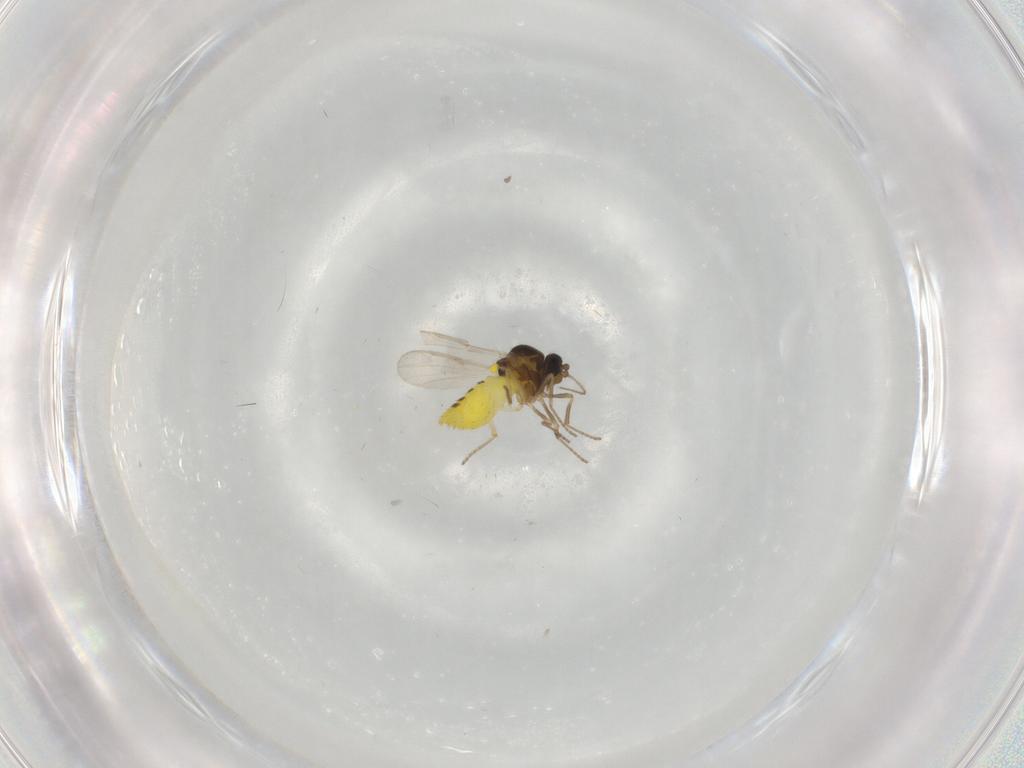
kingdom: Animalia
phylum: Arthropoda
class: Insecta
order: Diptera
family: Ceratopogonidae
